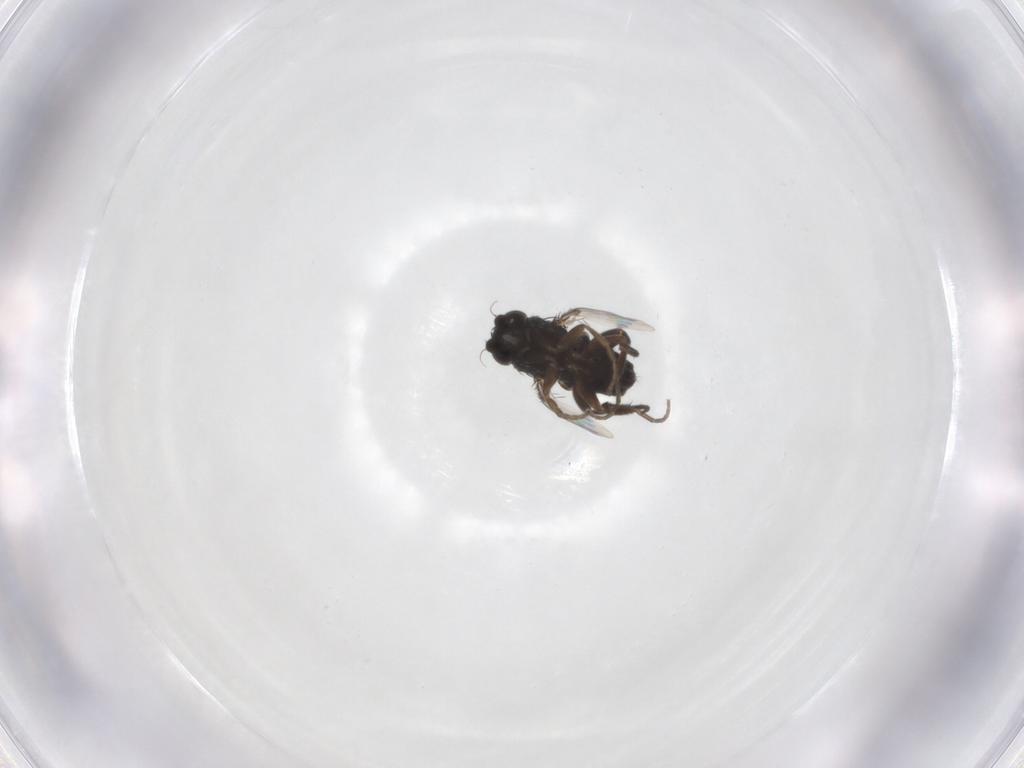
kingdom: Animalia
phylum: Arthropoda
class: Insecta
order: Diptera
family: Phoridae
